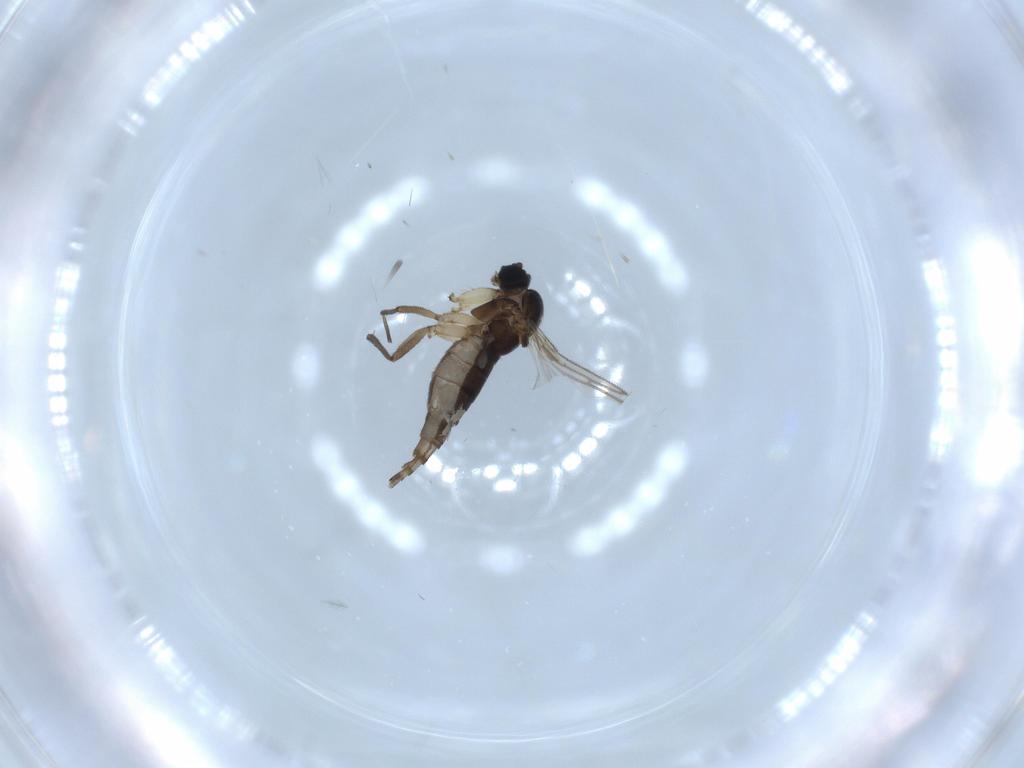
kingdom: Animalia
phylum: Arthropoda
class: Insecta
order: Diptera
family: Sciaridae
